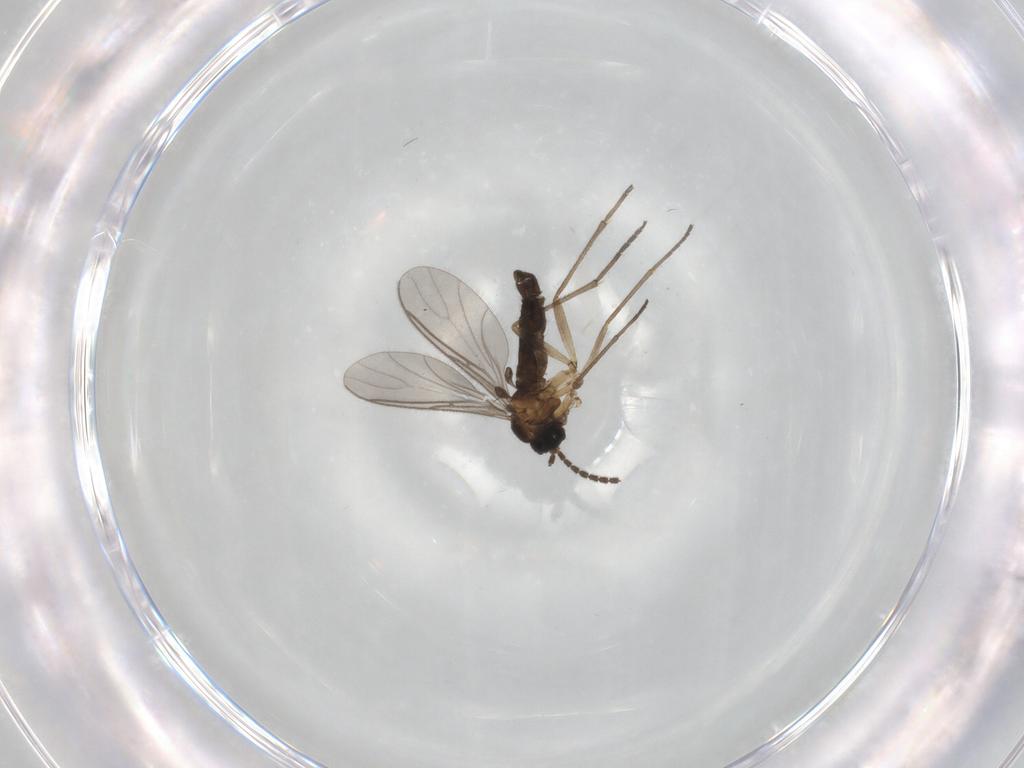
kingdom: Animalia
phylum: Arthropoda
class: Insecta
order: Diptera
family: Sciaridae
